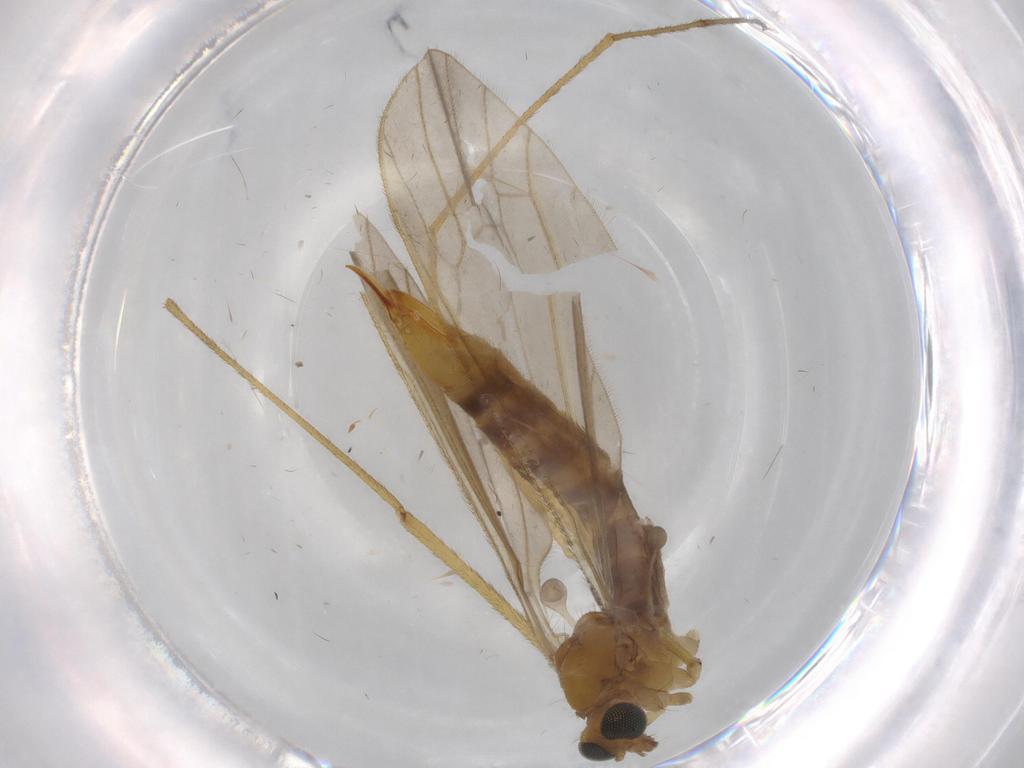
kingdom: Animalia
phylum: Arthropoda
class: Insecta
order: Diptera
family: Limoniidae
